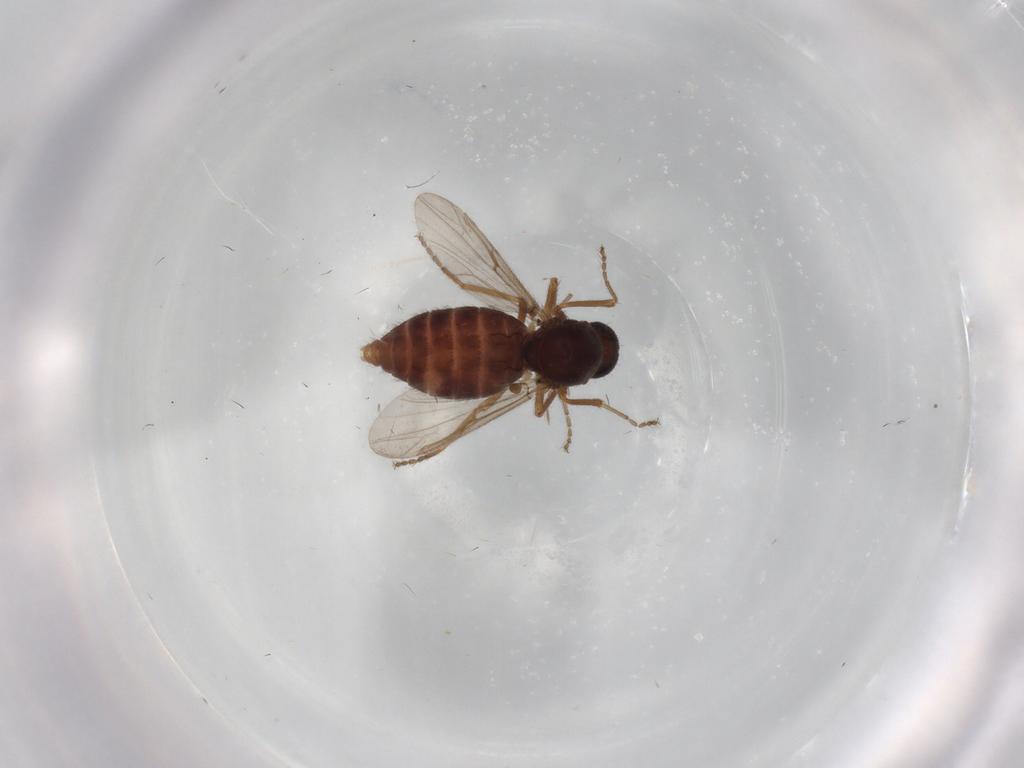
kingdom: Animalia
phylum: Arthropoda
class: Insecta
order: Diptera
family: Ceratopogonidae
